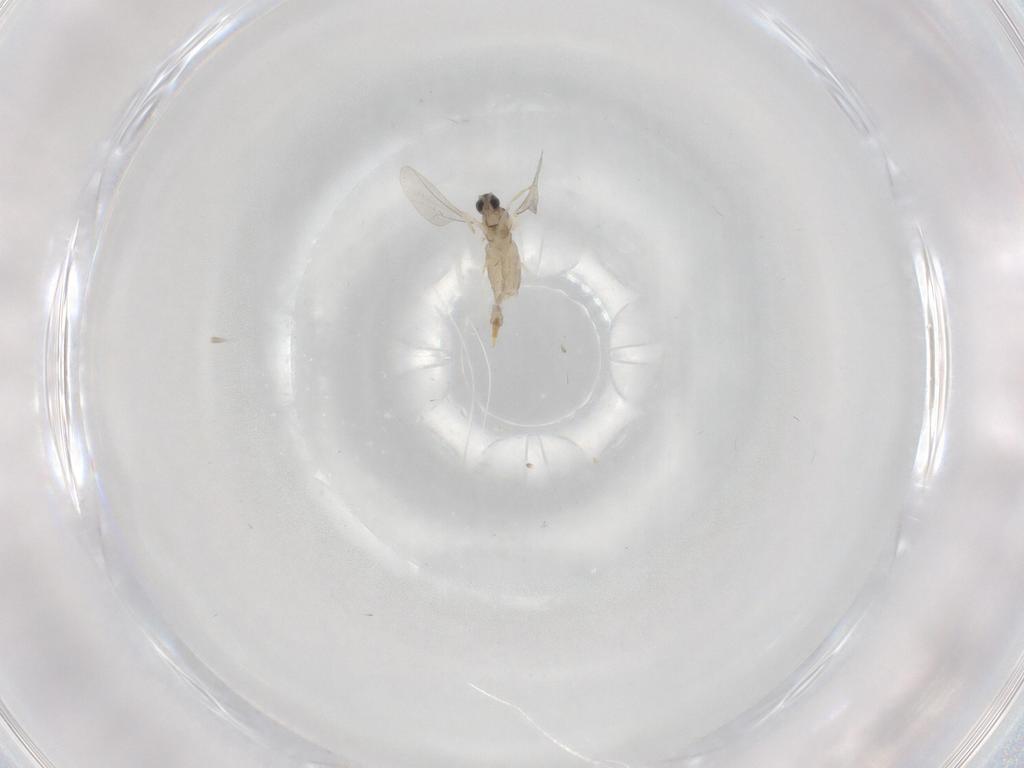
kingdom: Animalia
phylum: Arthropoda
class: Insecta
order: Diptera
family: Cecidomyiidae
